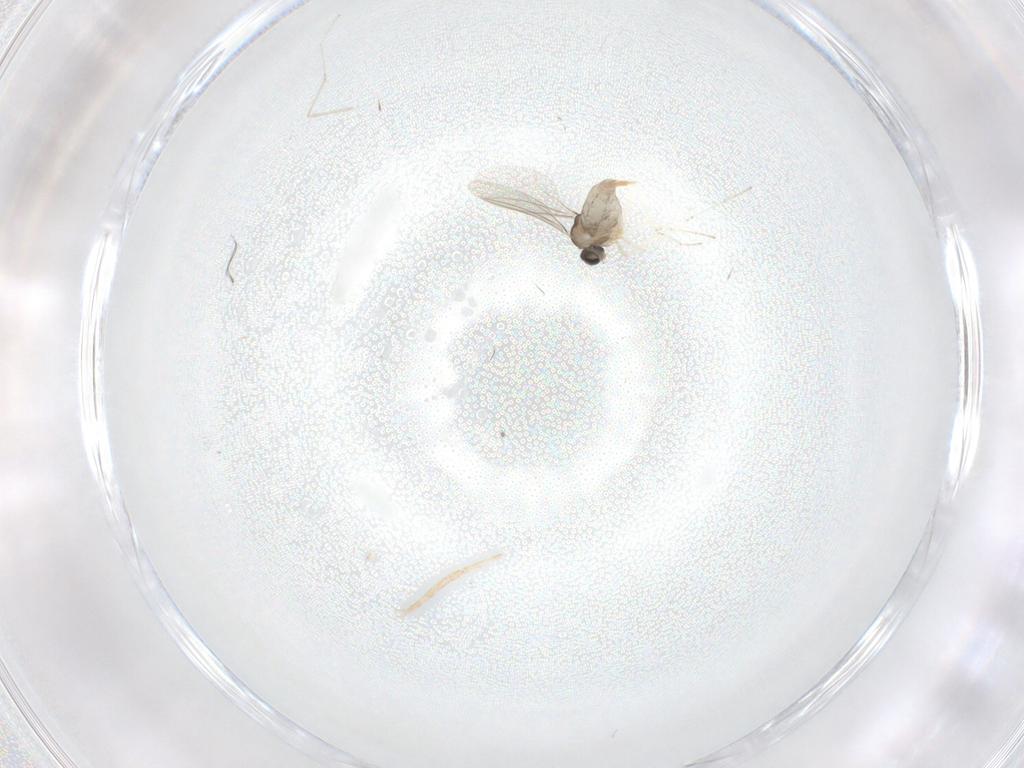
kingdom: Animalia
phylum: Arthropoda
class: Insecta
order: Diptera
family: Cecidomyiidae
